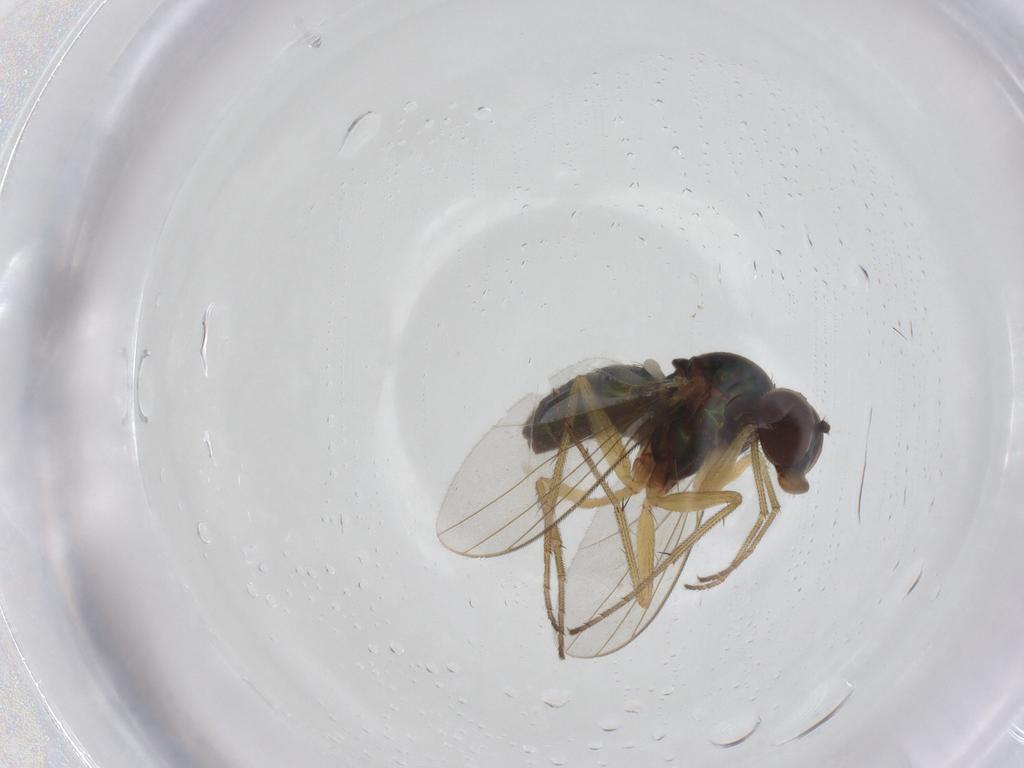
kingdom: Animalia
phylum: Arthropoda
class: Insecta
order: Diptera
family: Dolichopodidae
